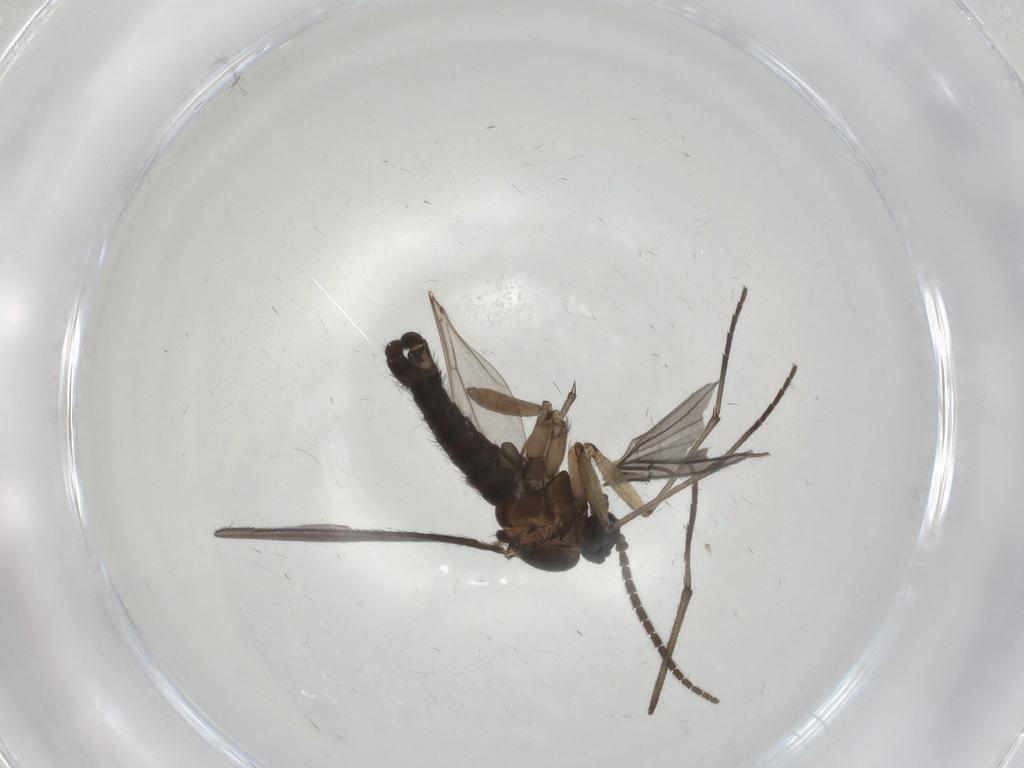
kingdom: Animalia
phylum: Arthropoda
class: Insecta
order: Diptera
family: Sciaridae
